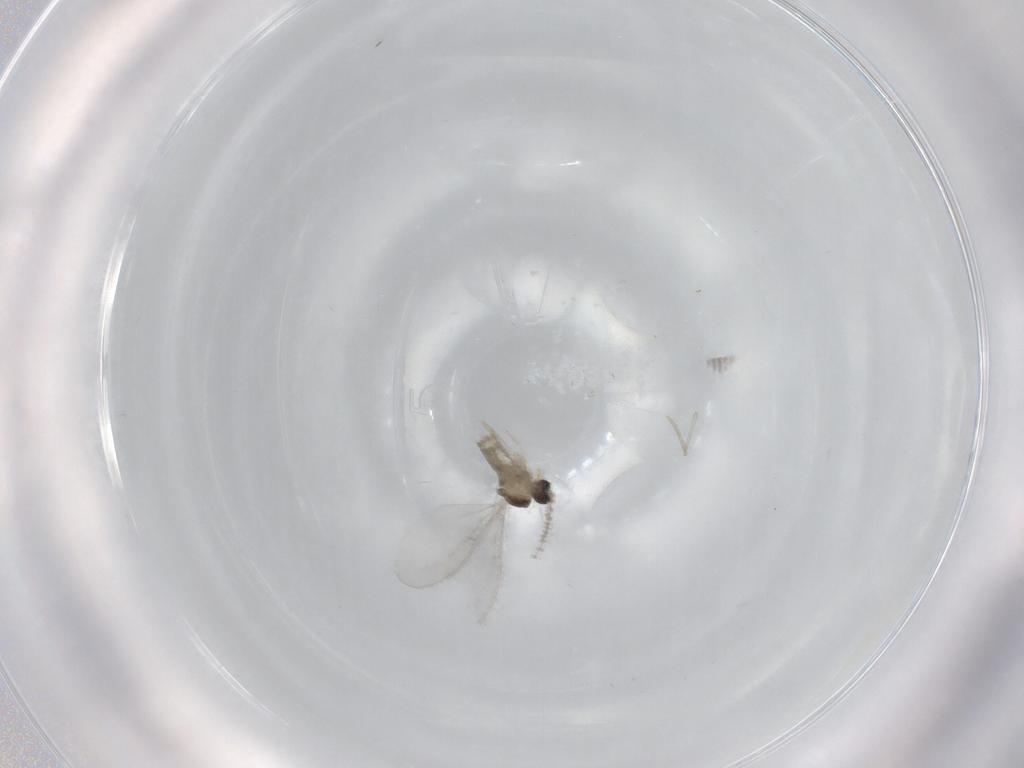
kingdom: Animalia
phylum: Arthropoda
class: Insecta
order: Diptera
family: Cecidomyiidae
